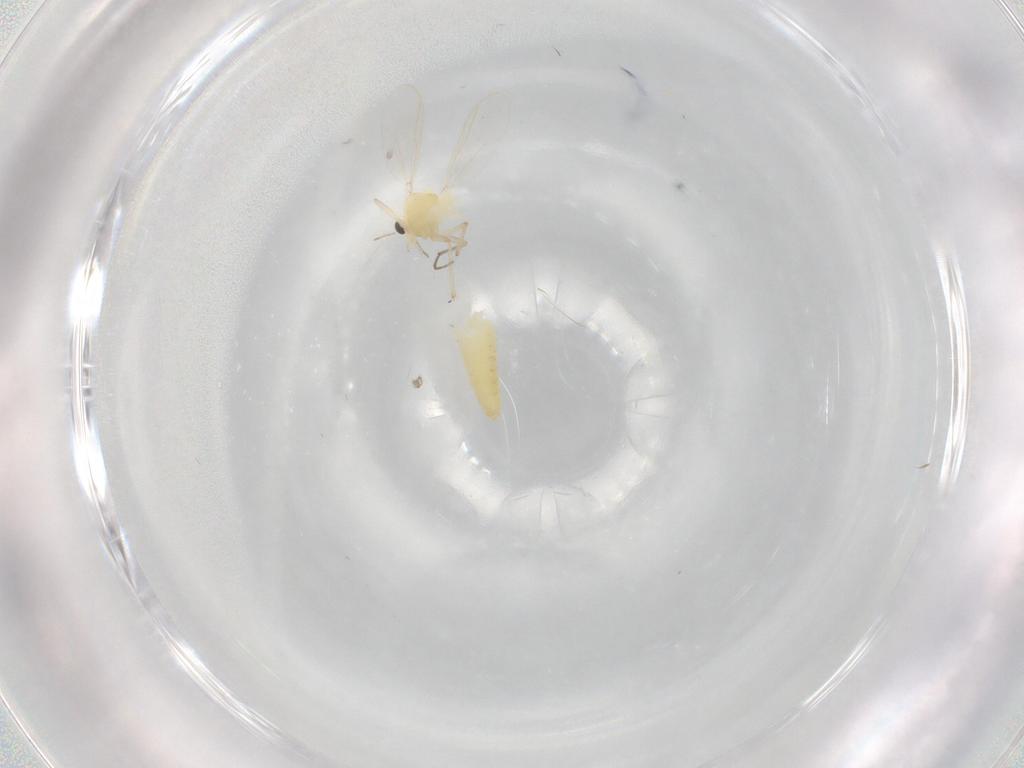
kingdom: Animalia
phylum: Arthropoda
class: Insecta
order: Diptera
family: Chironomidae
